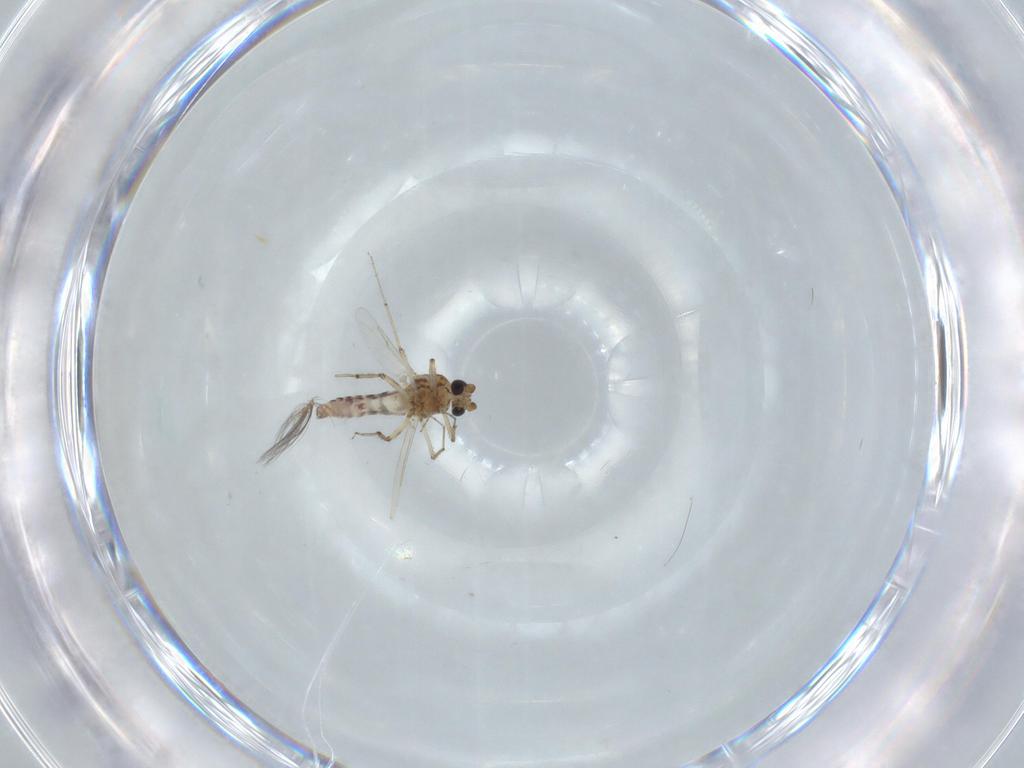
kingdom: Animalia
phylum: Arthropoda
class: Insecta
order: Diptera
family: Ceratopogonidae
